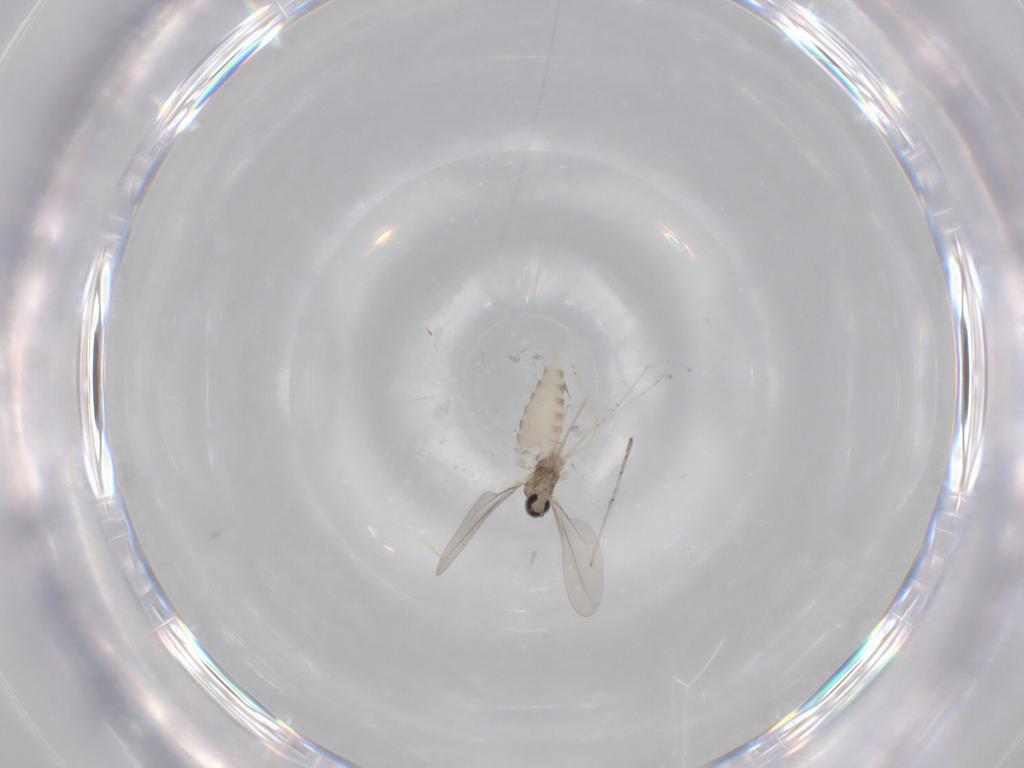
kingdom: Animalia
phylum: Arthropoda
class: Insecta
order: Diptera
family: Cecidomyiidae
